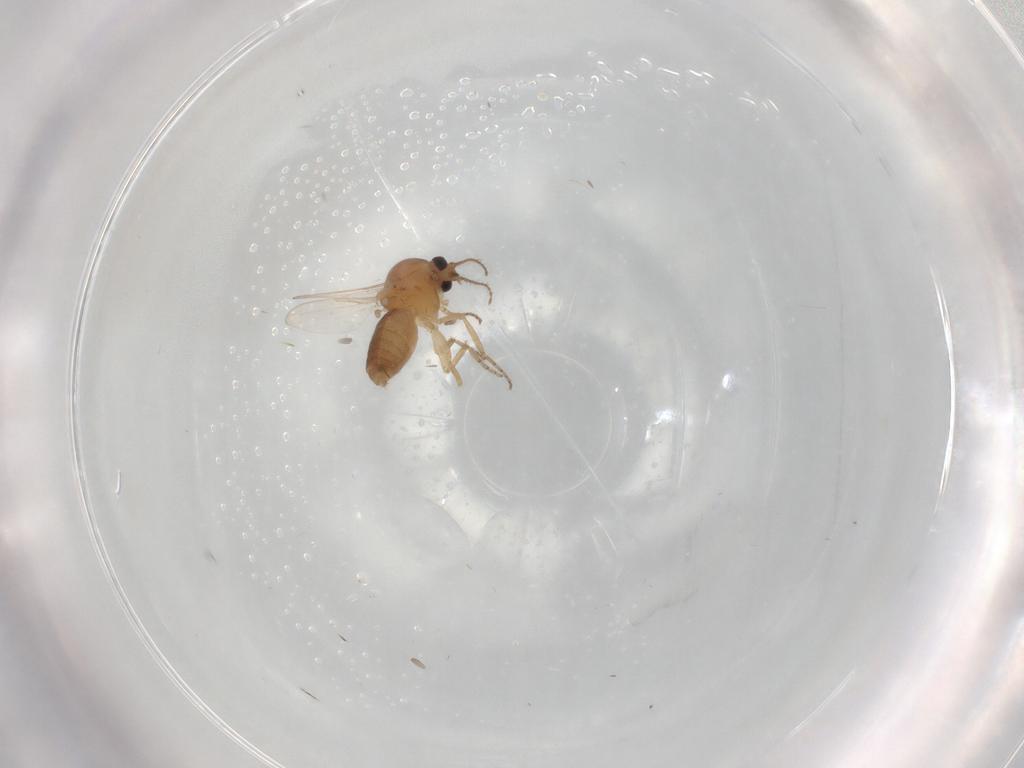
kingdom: Animalia
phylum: Arthropoda
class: Insecta
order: Diptera
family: Ceratopogonidae
